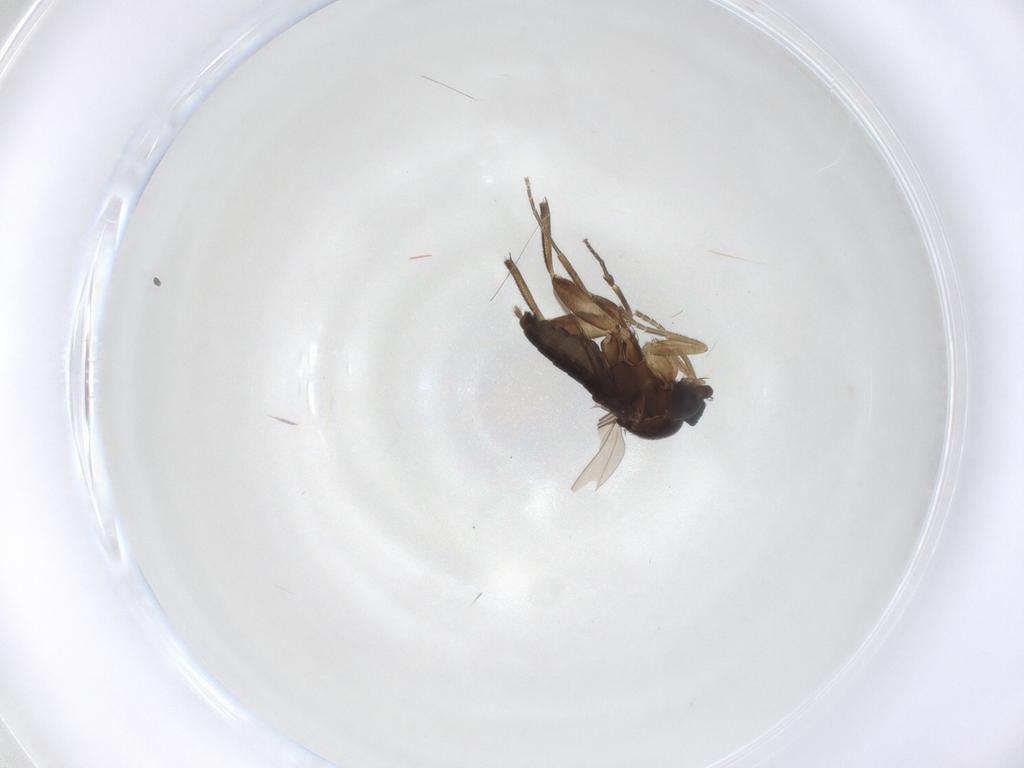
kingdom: Animalia
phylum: Arthropoda
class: Insecta
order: Diptera
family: Phoridae
